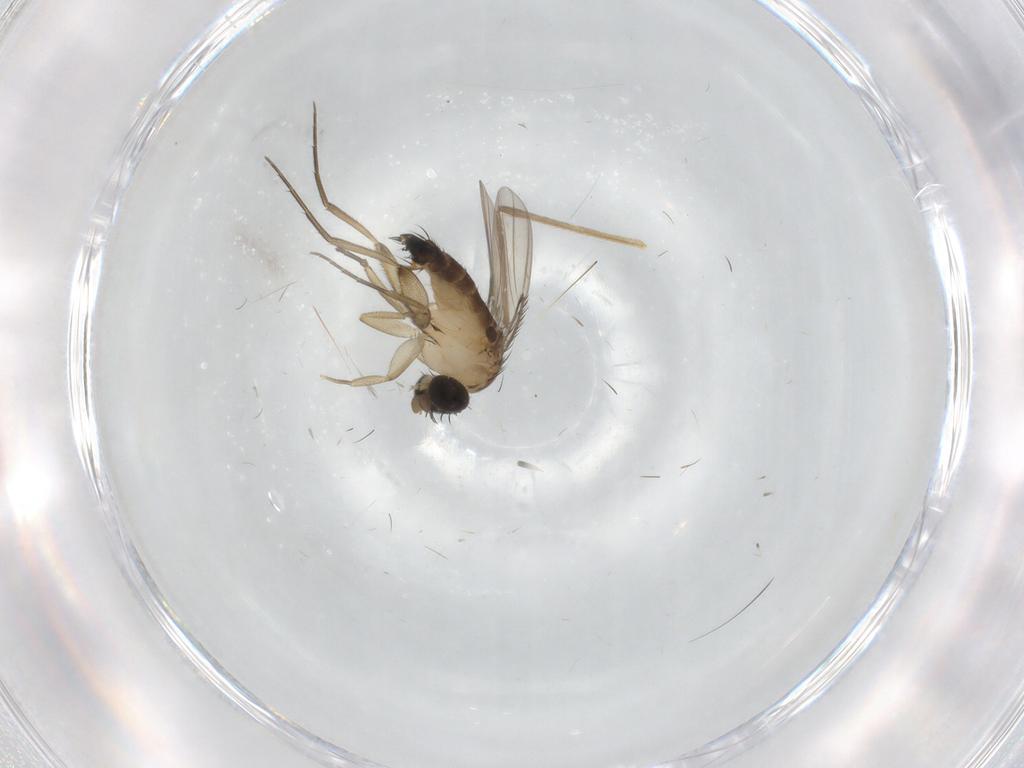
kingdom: Animalia
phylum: Arthropoda
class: Insecta
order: Diptera
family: Phoridae
